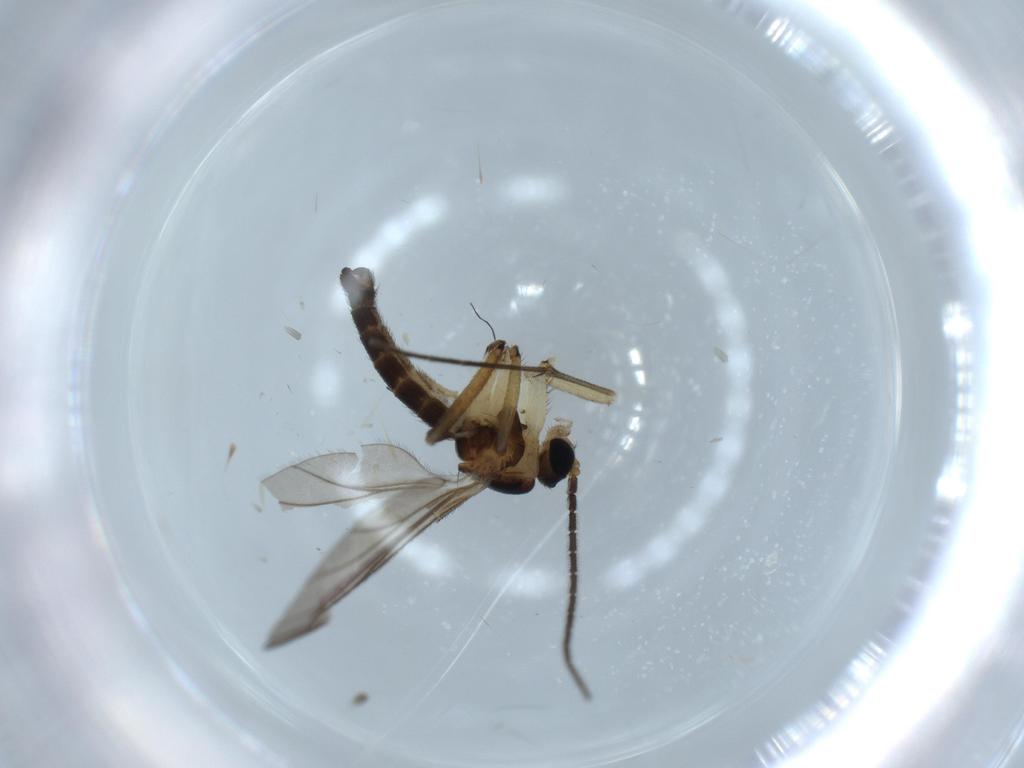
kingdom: Animalia
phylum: Arthropoda
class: Insecta
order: Diptera
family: Sciaridae
